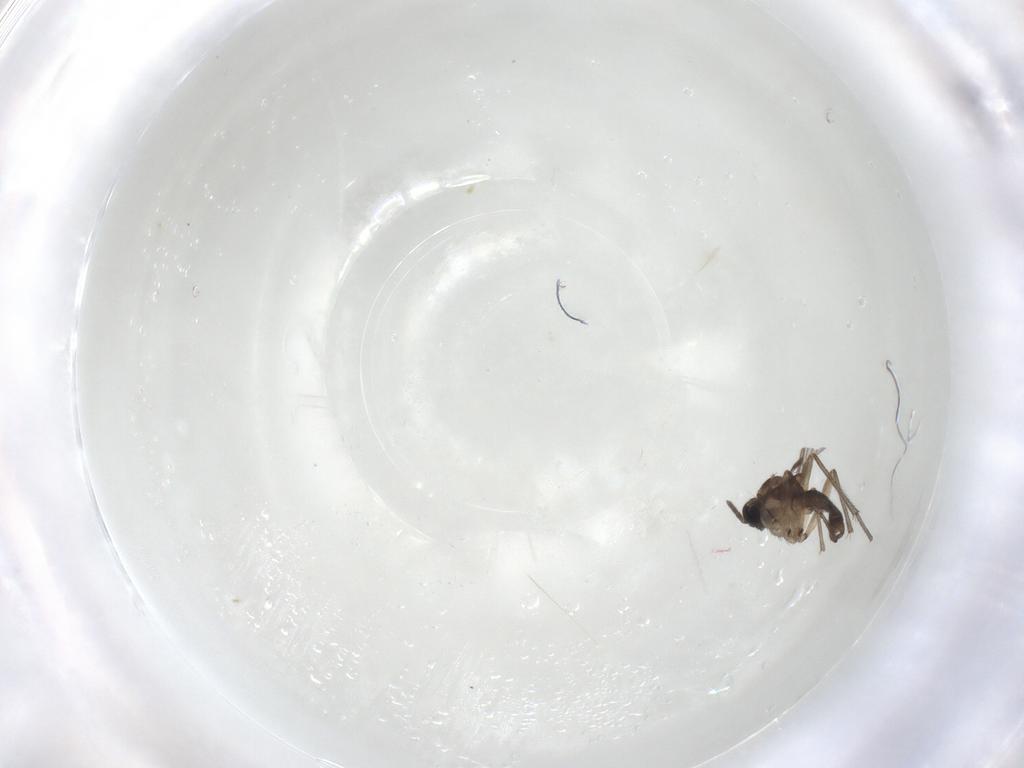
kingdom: Animalia
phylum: Arthropoda
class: Insecta
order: Diptera
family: Sciaridae
